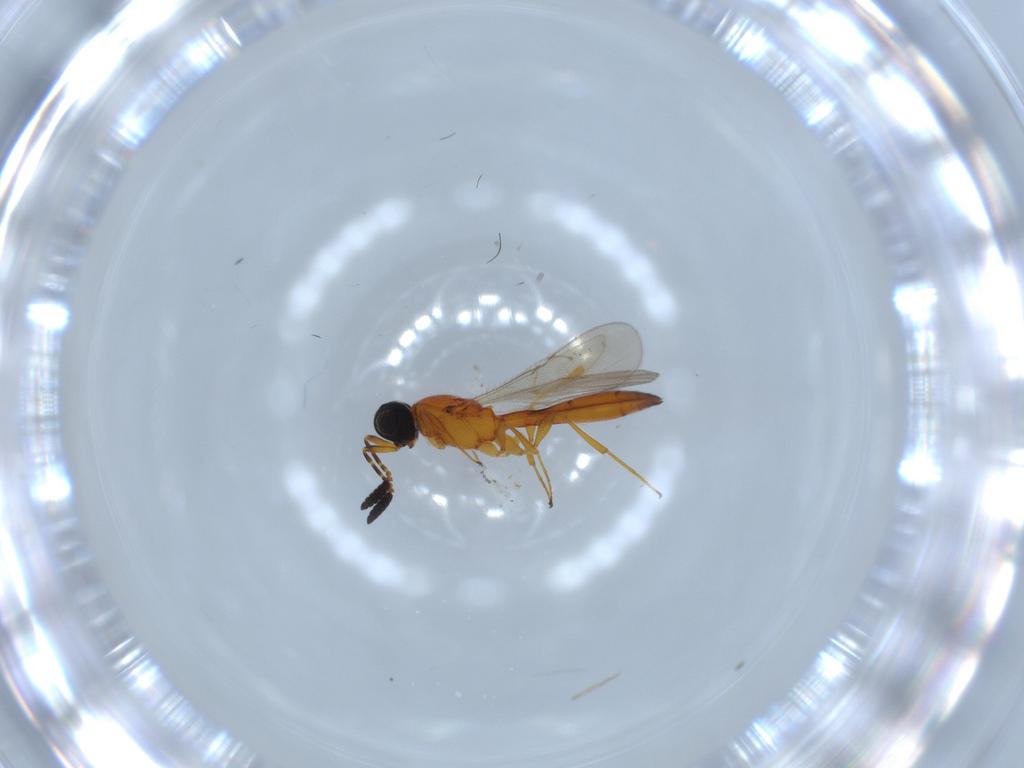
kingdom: Animalia
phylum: Arthropoda
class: Insecta
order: Hymenoptera
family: Scelionidae
